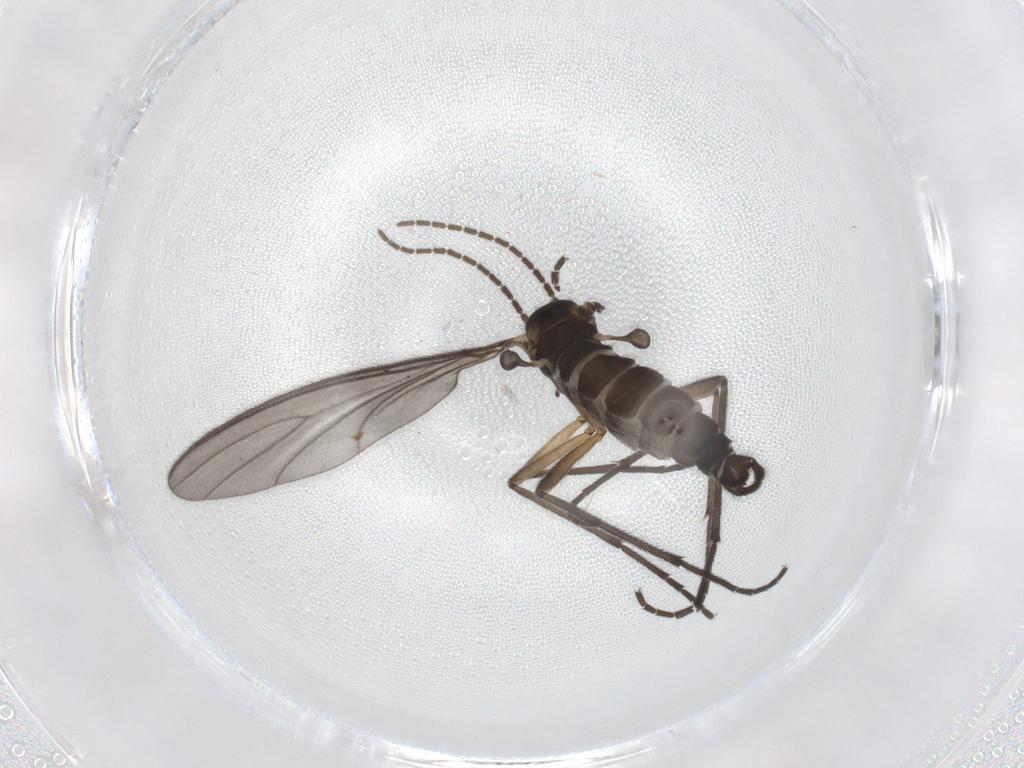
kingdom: Animalia
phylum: Arthropoda
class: Insecta
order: Diptera
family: Sciaridae
